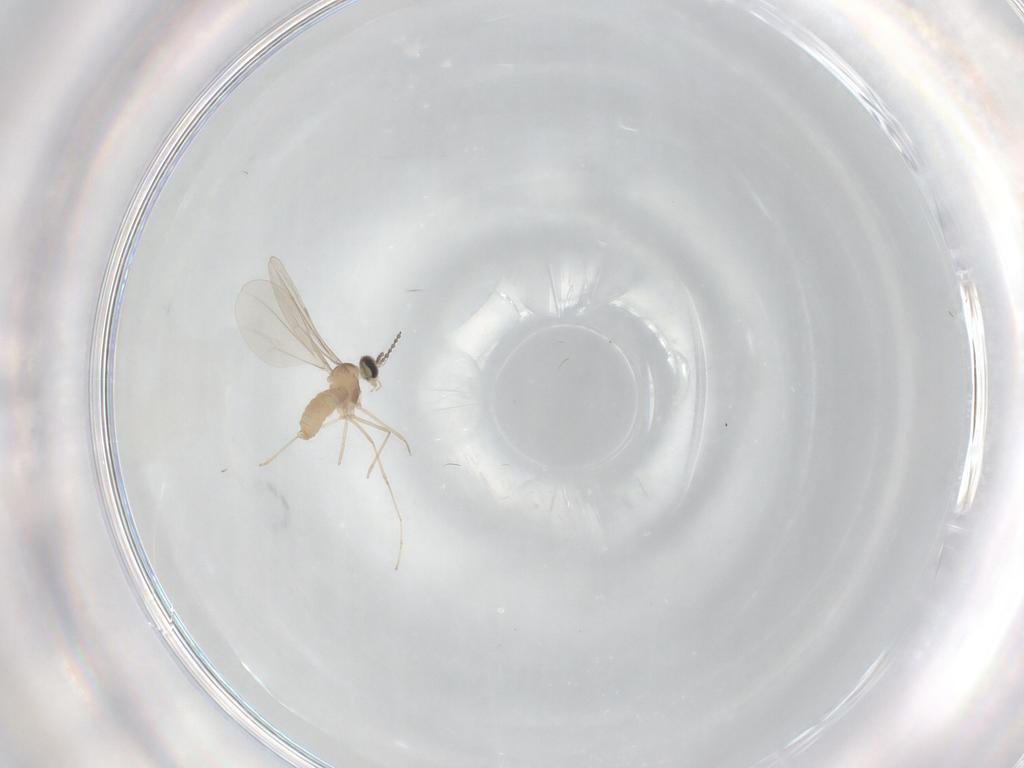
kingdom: Animalia
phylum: Arthropoda
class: Insecta
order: Diptera
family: Cecidomyiidae
